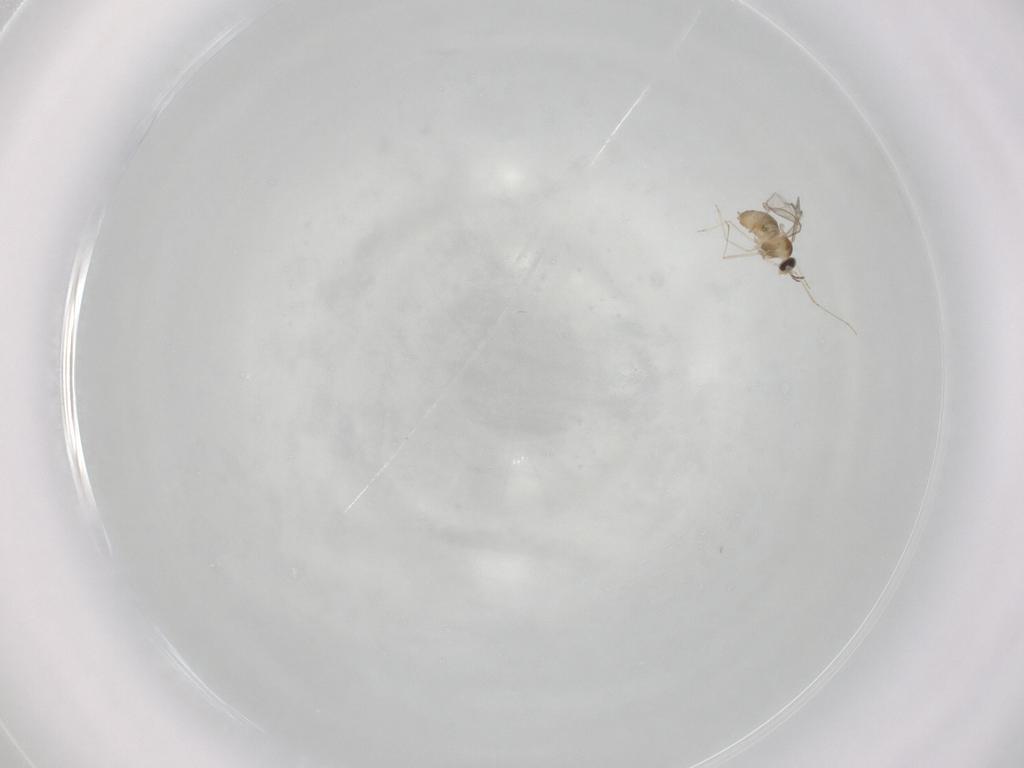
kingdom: Animalia
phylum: Arthropoda
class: Insecta
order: Diptera
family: Cecidomyiidae
